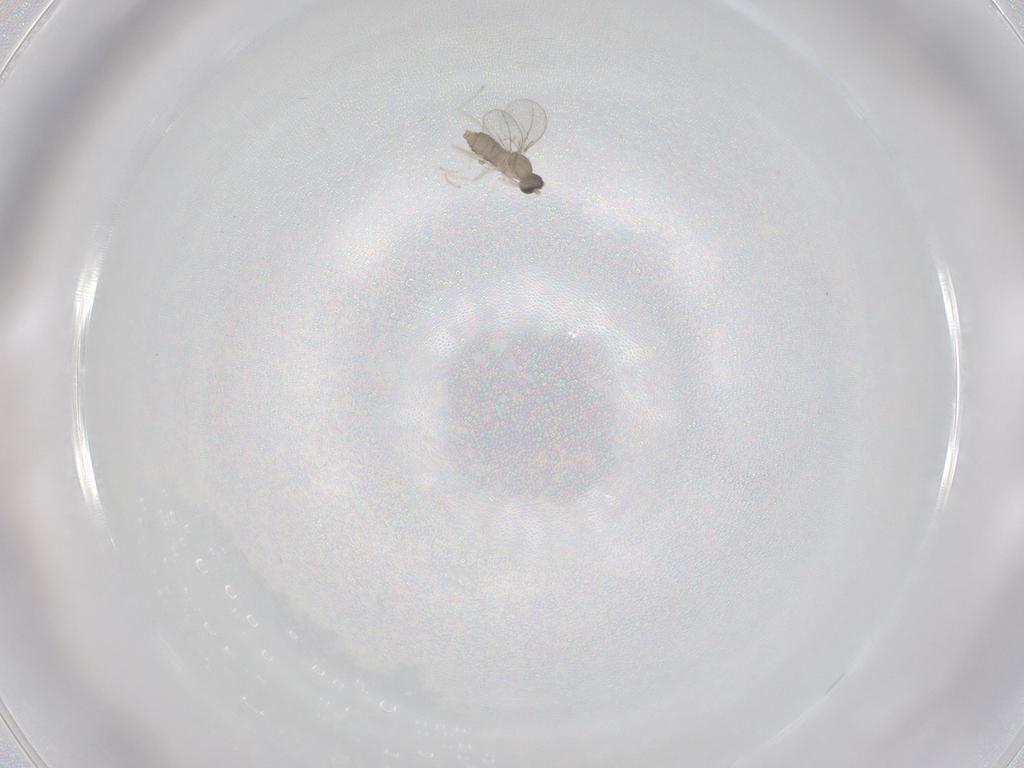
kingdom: Animalia
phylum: Arthropoda
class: Insecta
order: Diptera
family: Cecidomyiidae
